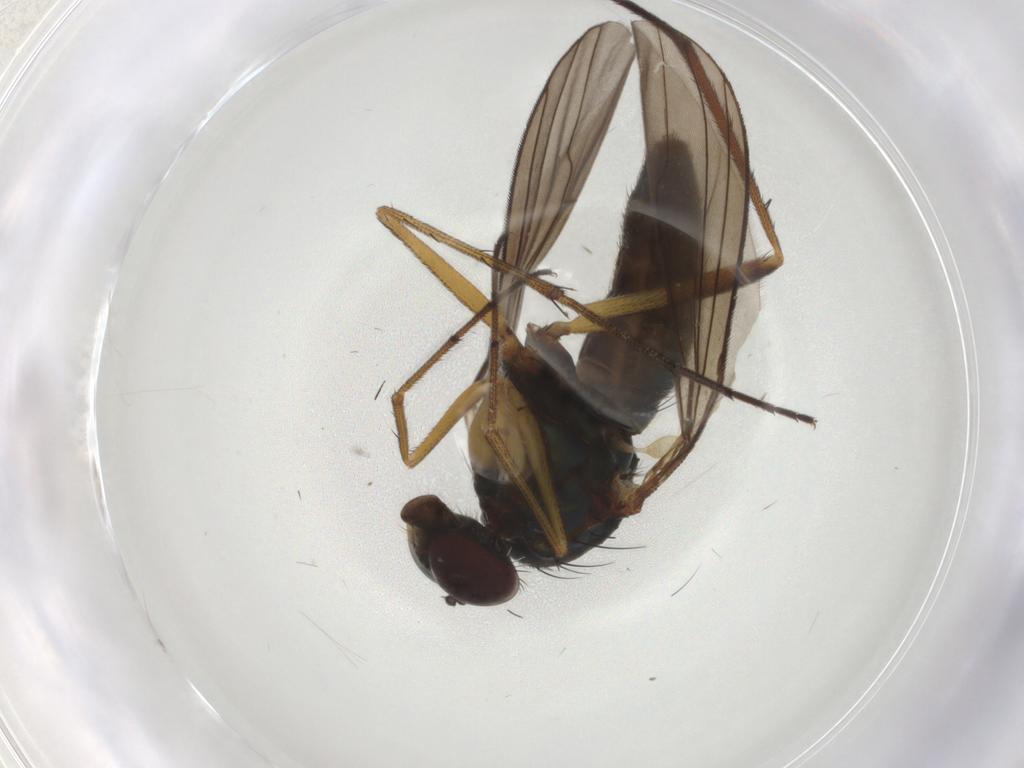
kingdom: Animalia
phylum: Arthropoda
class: Insecta
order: Diptera
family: Dolichopodidae
